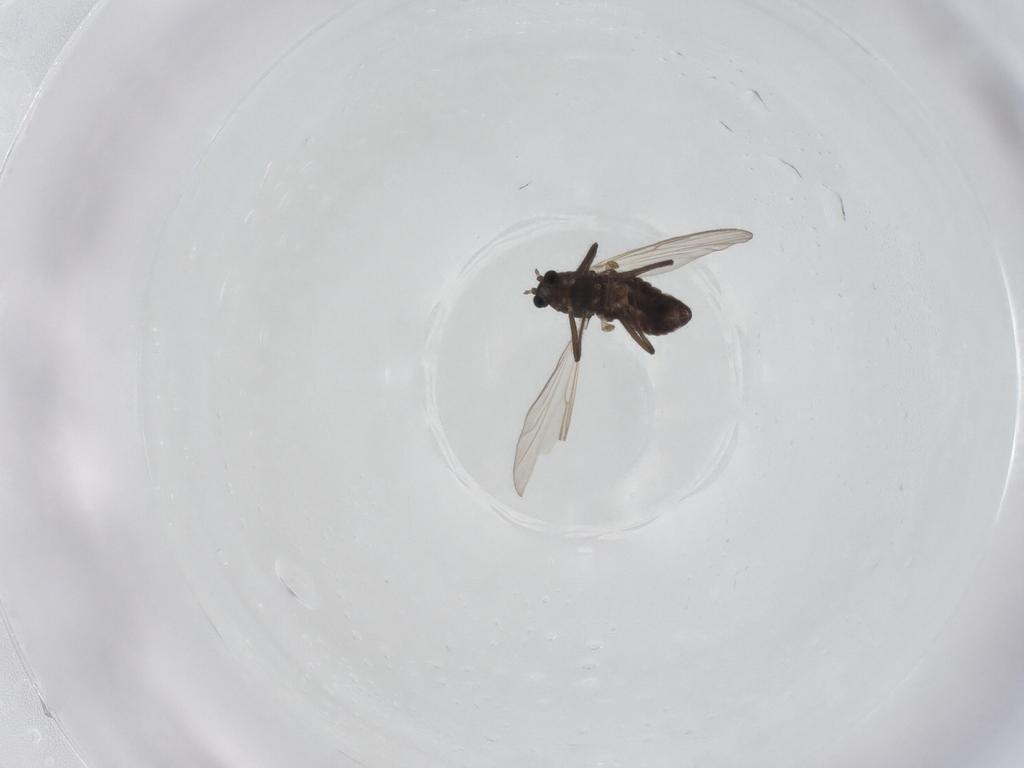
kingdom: Animalia
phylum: Arthropoda
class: Insecta
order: Diptera
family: Chironomidae
